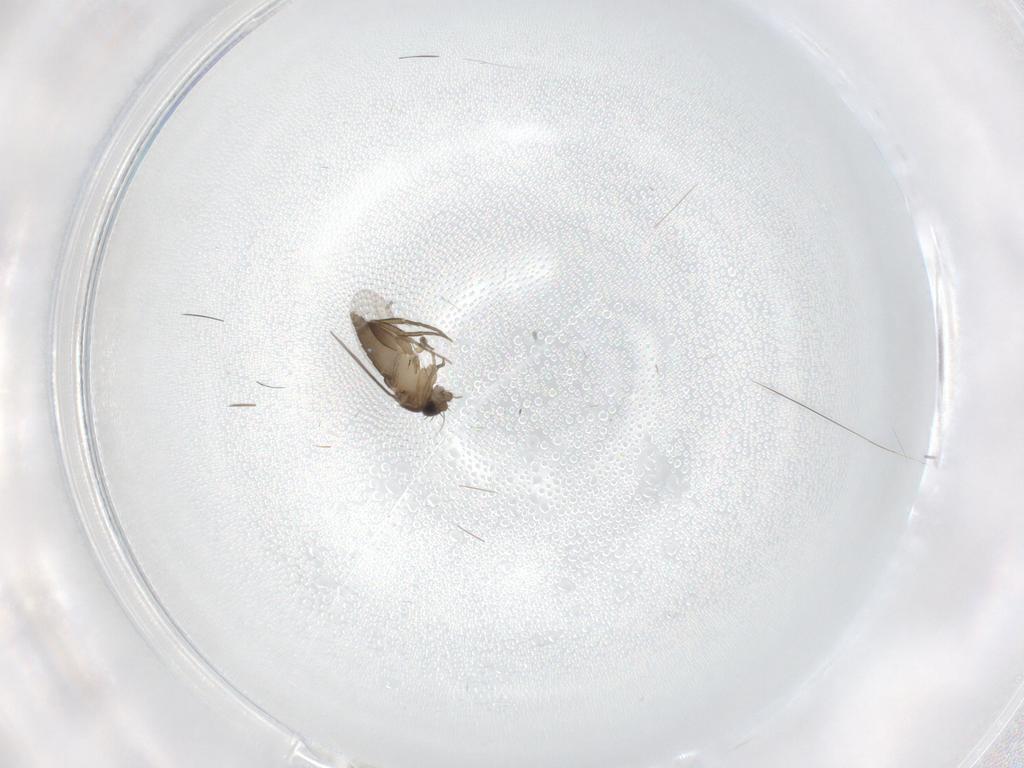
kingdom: Animalia
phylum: Arthropoda
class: Insecta
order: Diptera
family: Phoridae
